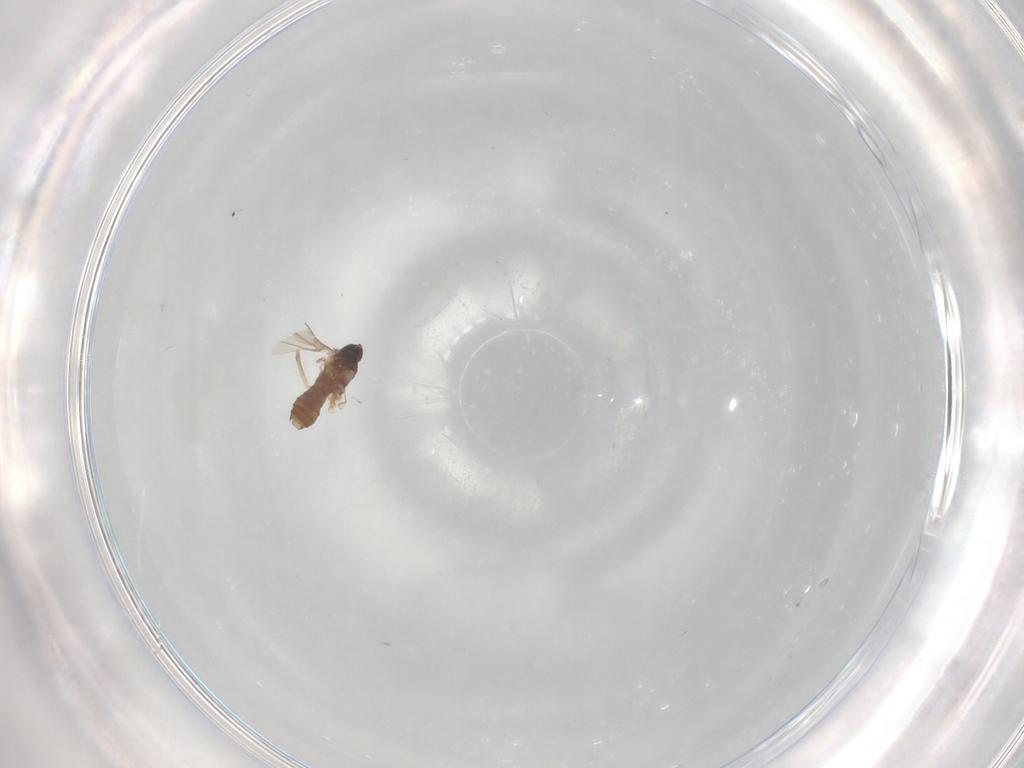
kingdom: Animalia
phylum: Arthropoda
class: Insecta
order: Diptera
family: Cecidomyiidae
